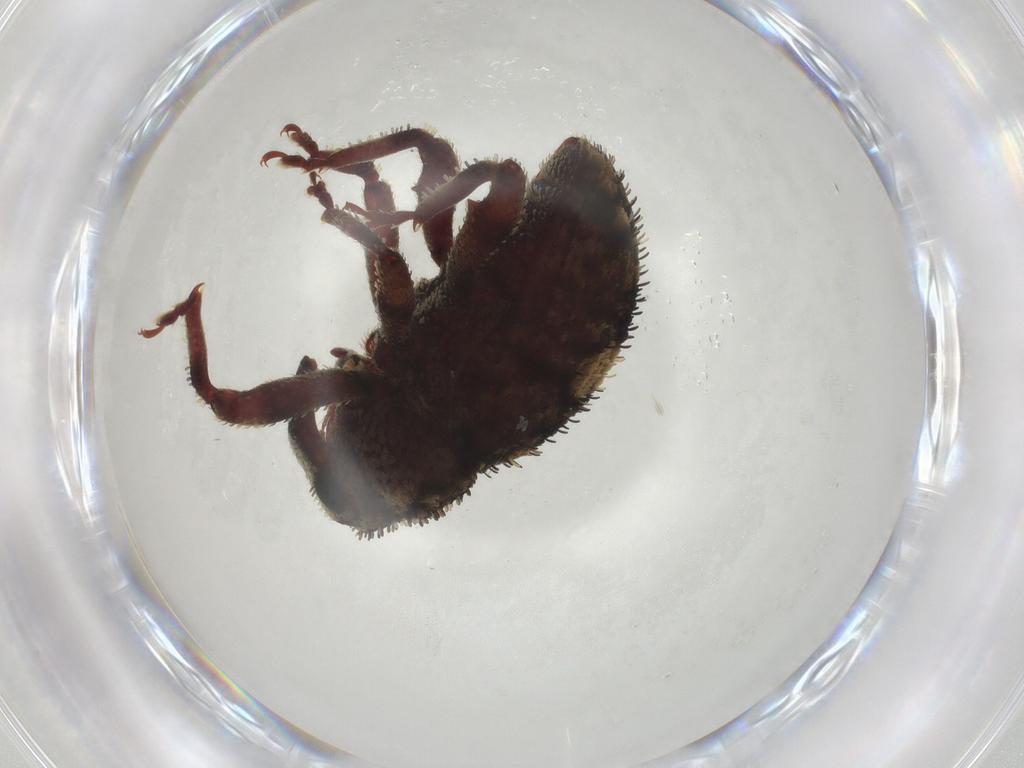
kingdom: Animalia
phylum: Arthropoda
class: Insecta
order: Coleoptera
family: Curculionidae
